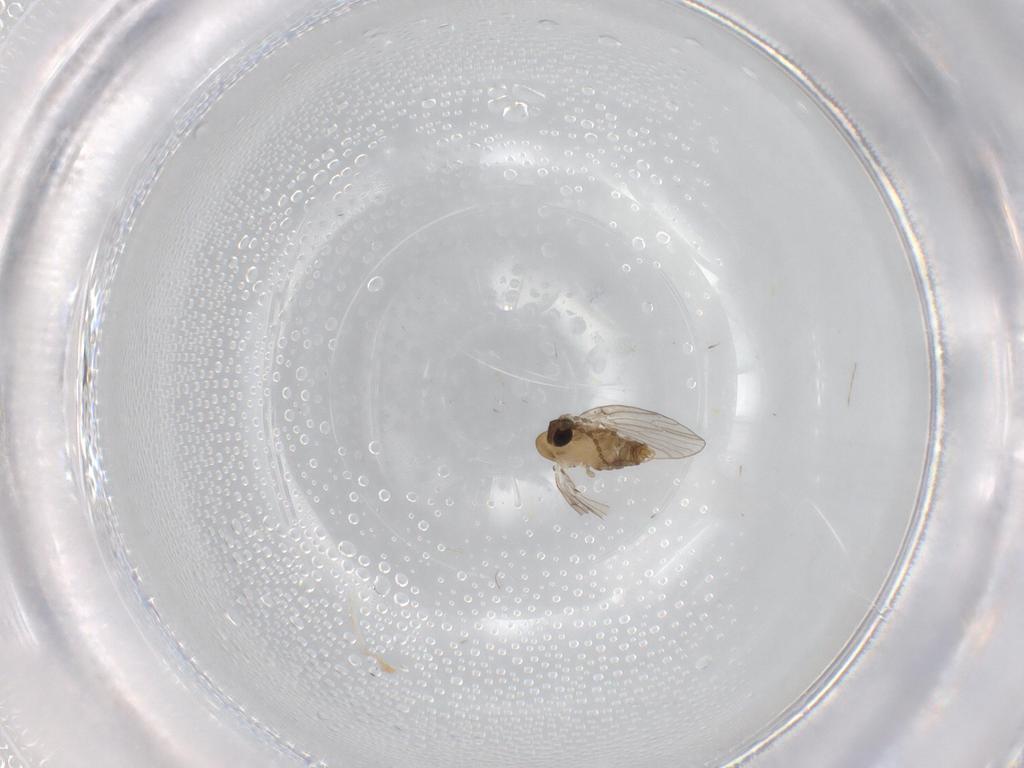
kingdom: Animalia
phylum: Arthropoda
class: Insecta
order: Diptera
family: Psychodidae
